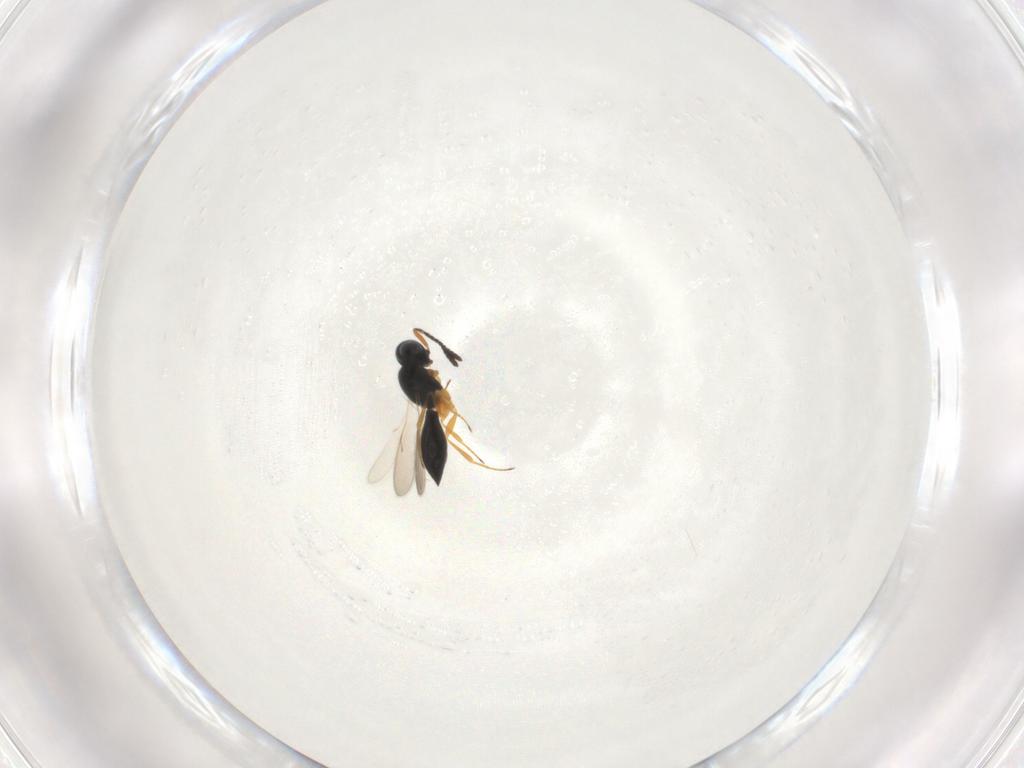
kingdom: Animalia
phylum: Arthropoda
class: Insecta
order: Hymenoptera
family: Scelionidae
